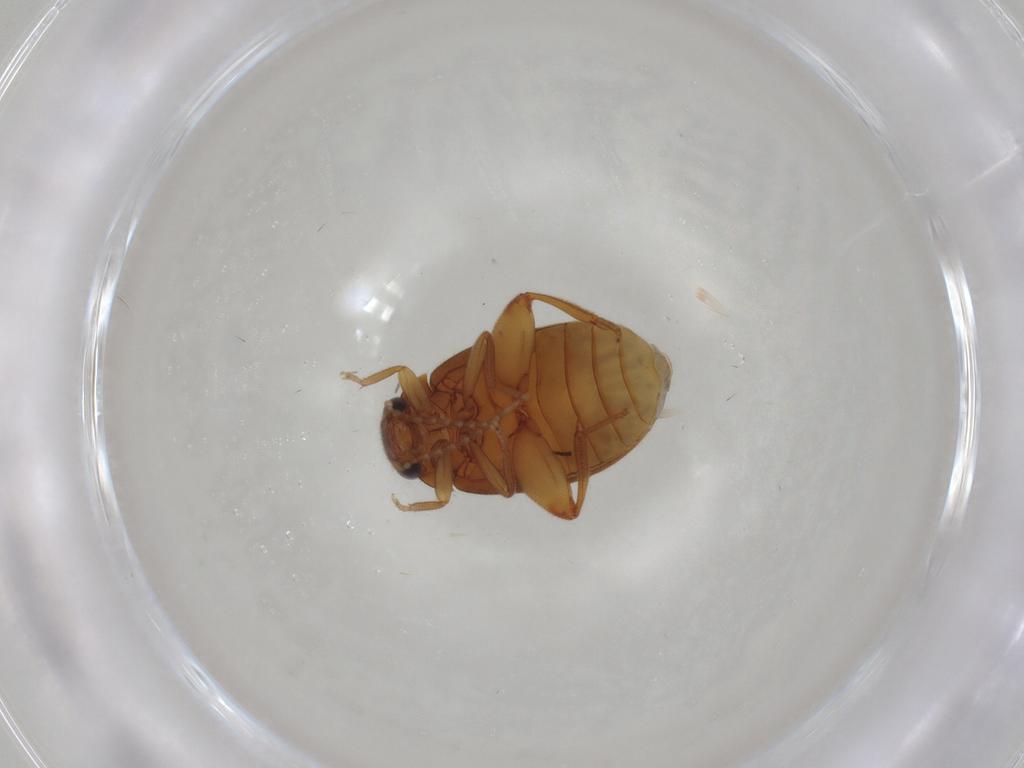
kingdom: Animalia
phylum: Arthropoda
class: Insecta
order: Coleoptera
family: Scirtidae
